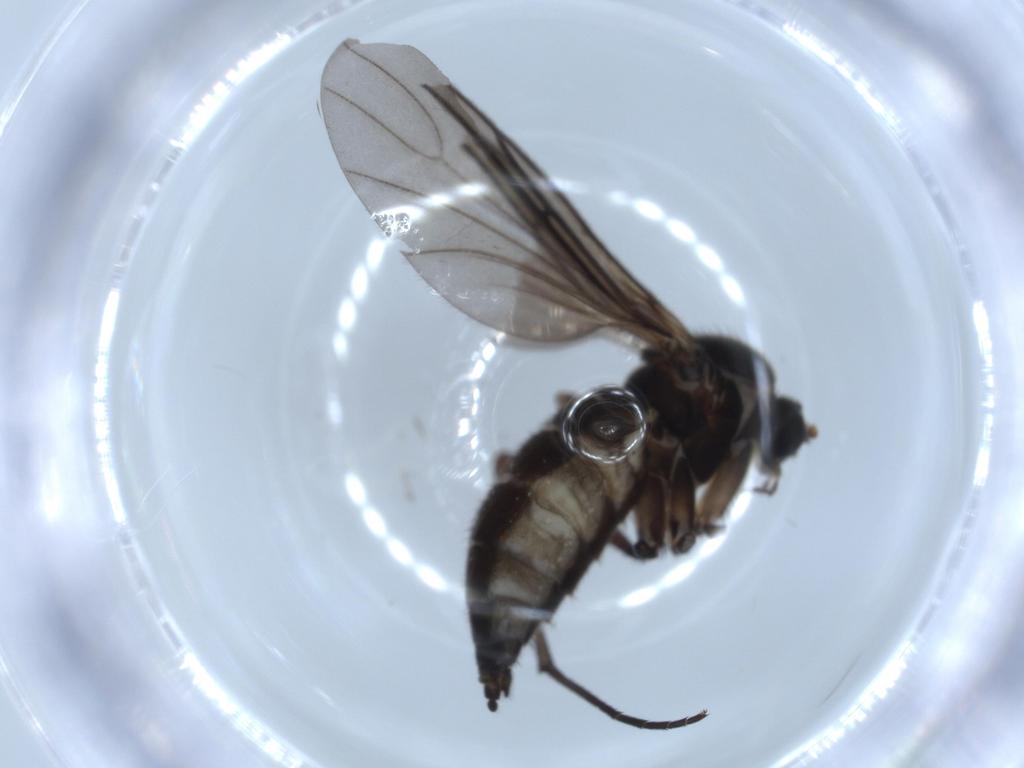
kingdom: Animalia
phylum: Arthropoda
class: Insecta
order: Diptera
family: Sciaridae
